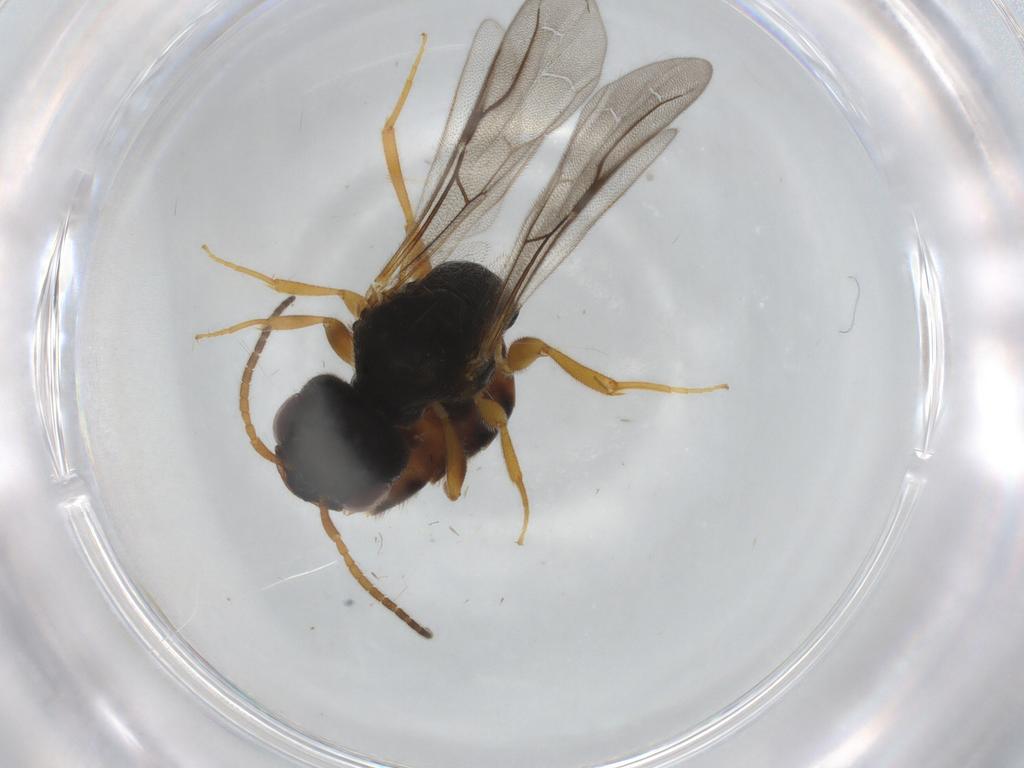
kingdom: Animalia
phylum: Arthropoda
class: Insecta
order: Hymenoptera
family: Bethylidae
